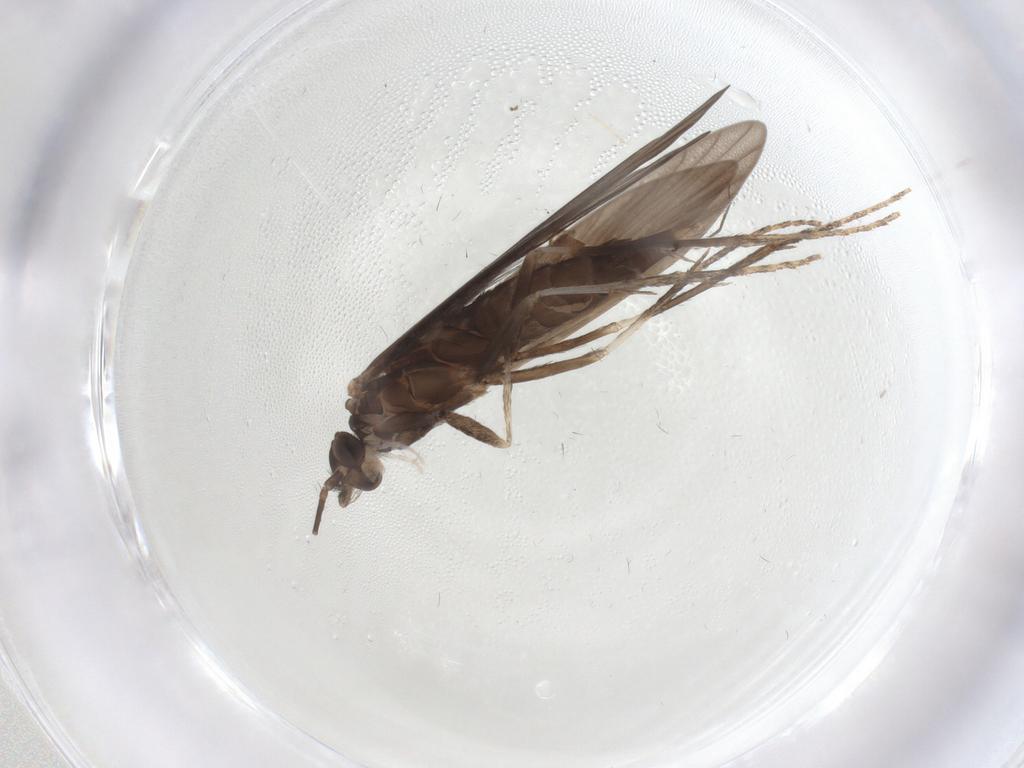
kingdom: Animalia
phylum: Arthropoda
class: Insecta
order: Trichoptera
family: Xiphocentronidae
